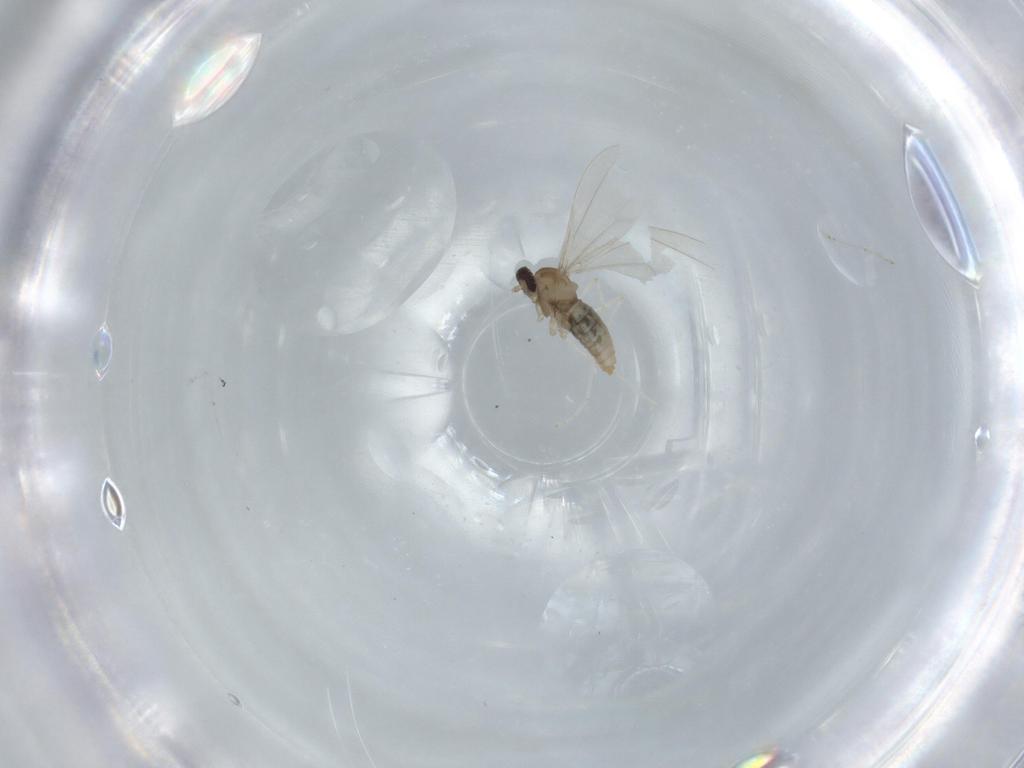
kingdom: Animalia
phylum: Arthropoda
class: Insecta
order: Diptera
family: Cecidomyiidae
